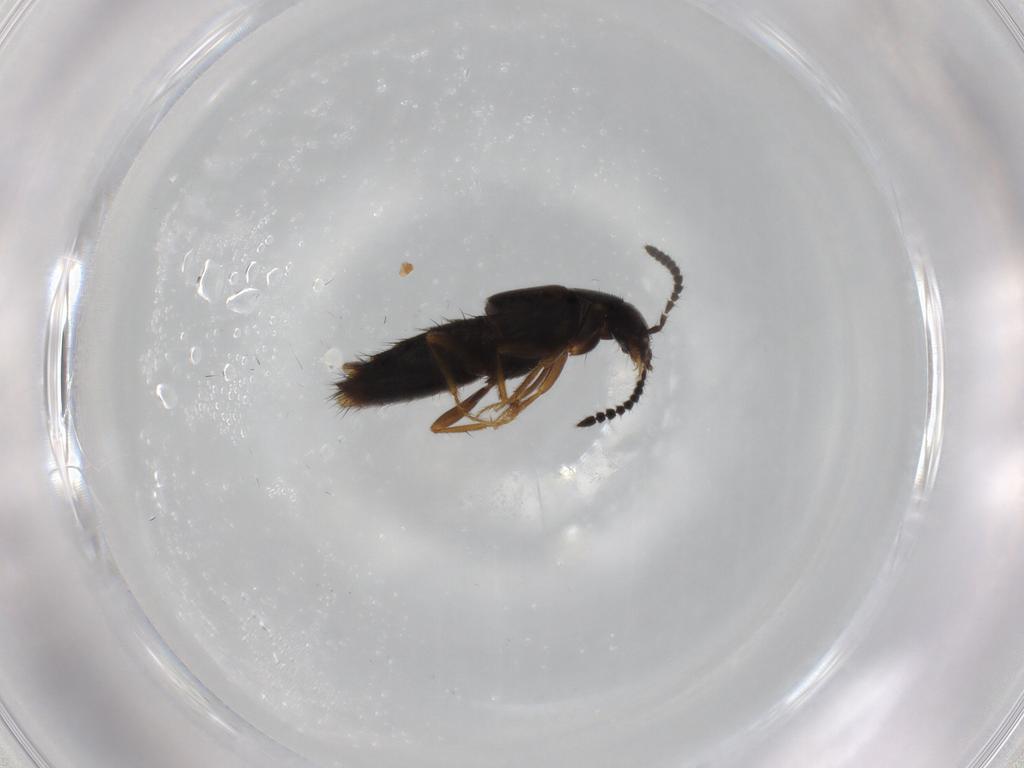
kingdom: Animalia
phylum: Arthropoda
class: Insecta
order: Coleoptera
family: Staphylinidae
